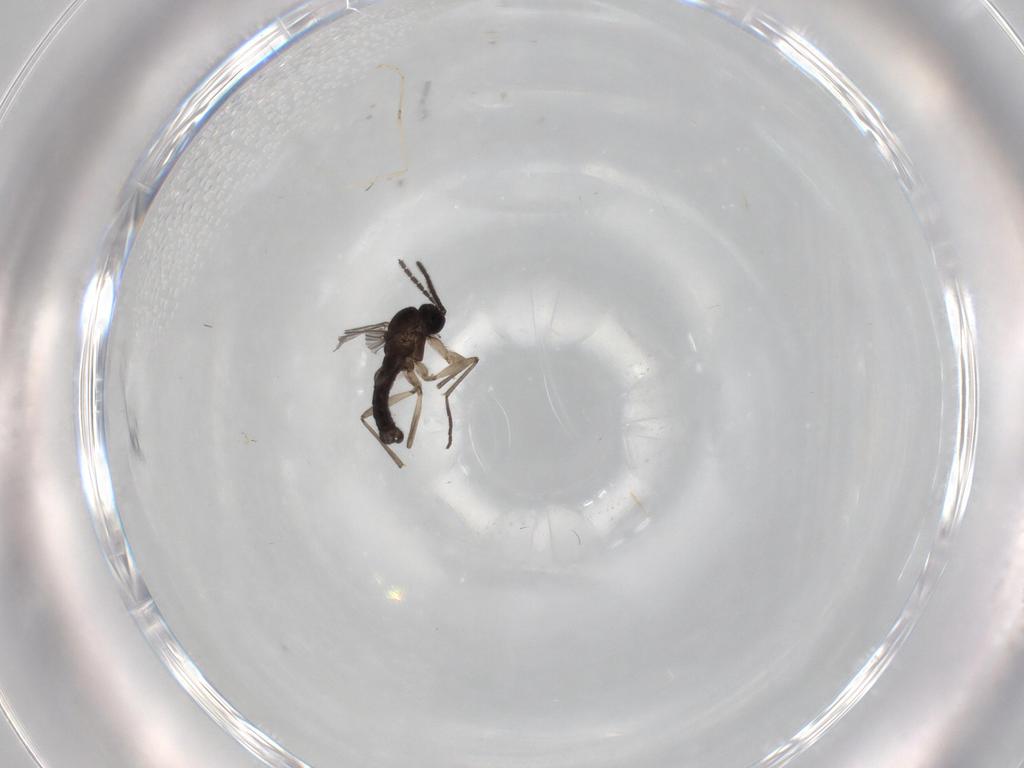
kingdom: Animalia
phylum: Arthropoda
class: Insecta
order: Diptera
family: Sciaridae
